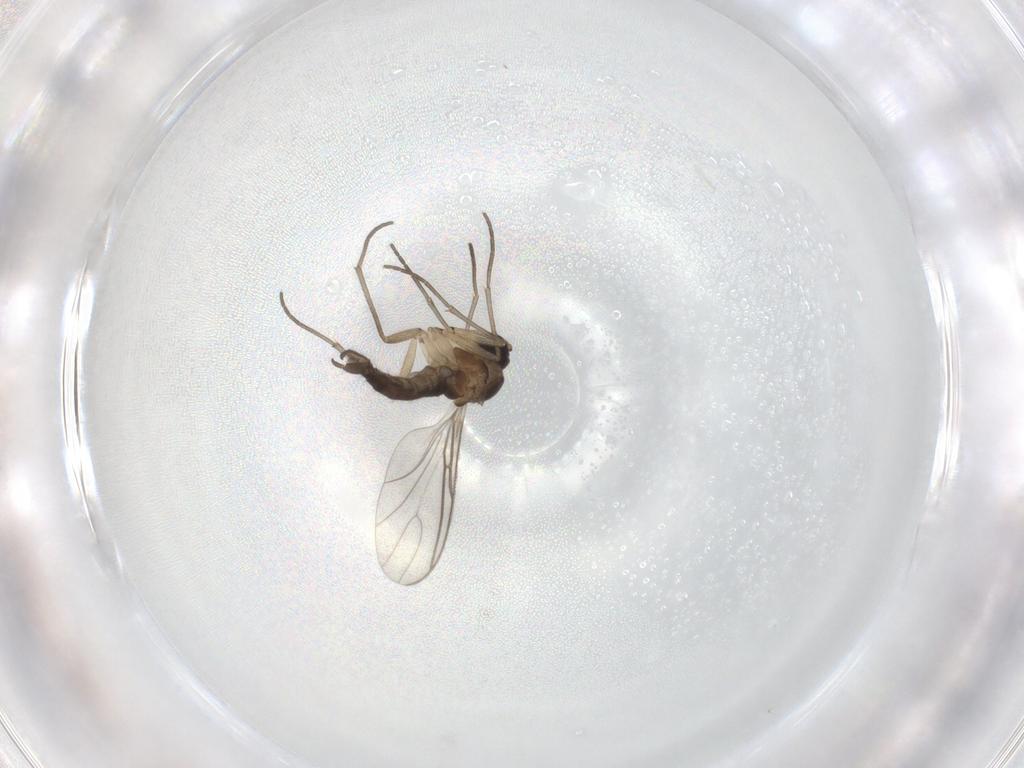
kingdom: Animalia
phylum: Arthropoda
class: Insecta
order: Diptera
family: Sciaridae
